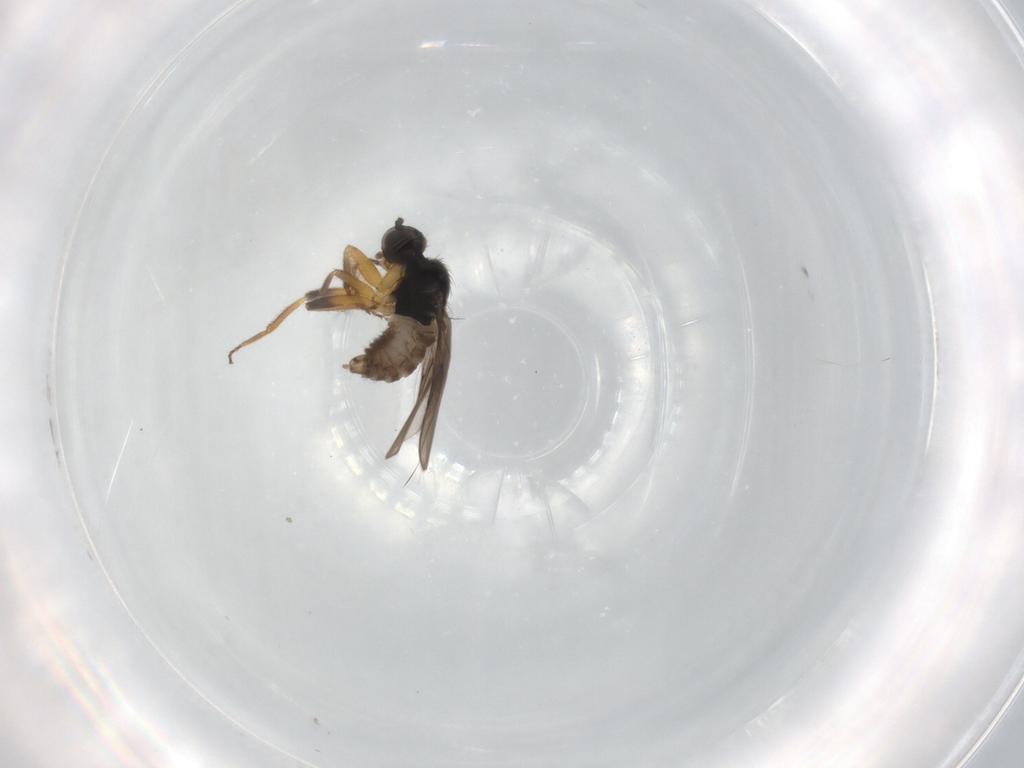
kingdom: Animalia
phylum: Arthropoda
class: Insecta
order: Diptera
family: Hybotidae
